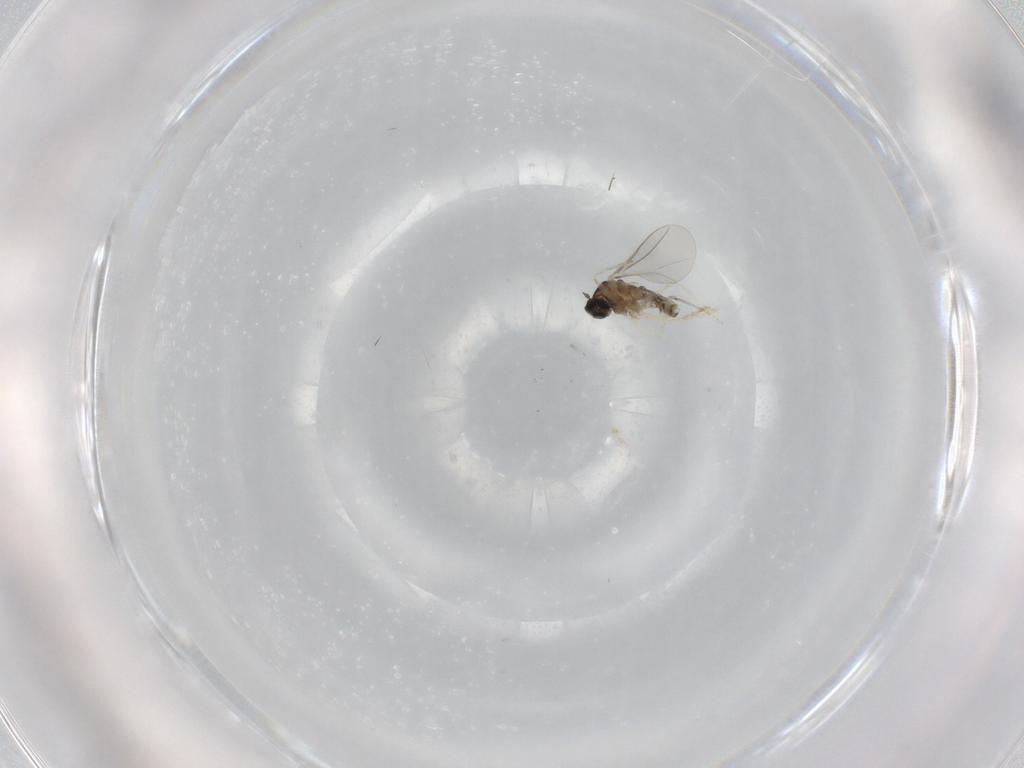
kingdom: Animalia
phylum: Arthropoda
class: Insecta
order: Diptera
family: Cecidomyiidae
